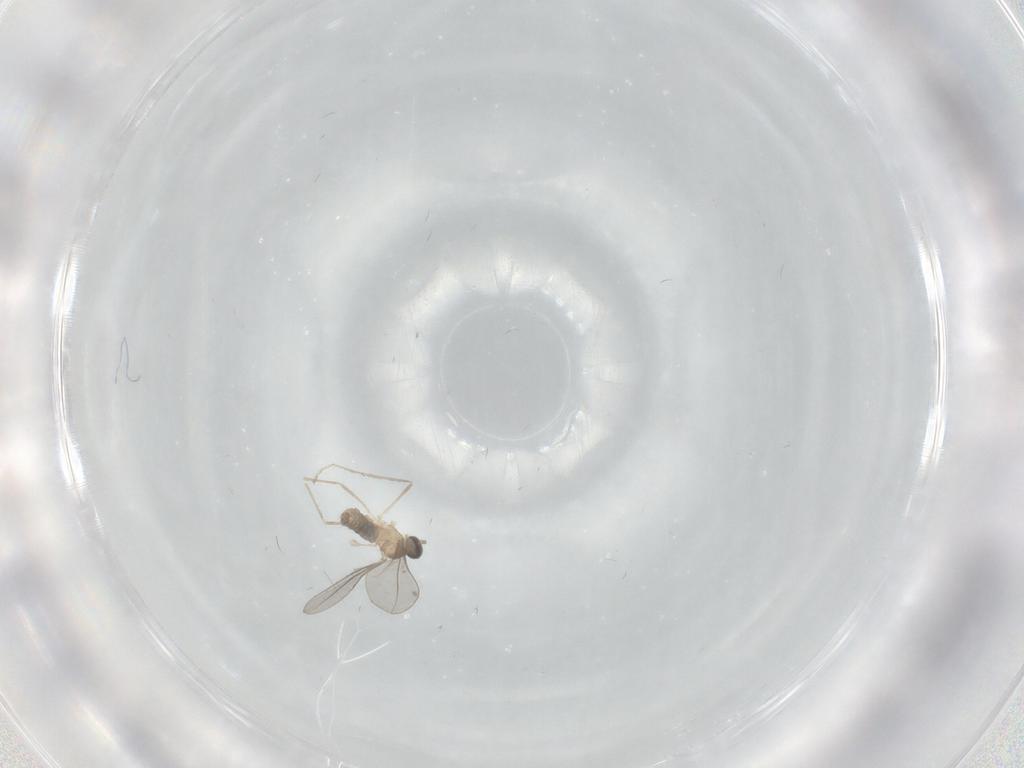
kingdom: Animalia
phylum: Arthropoda
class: Insecta
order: Diptera
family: Cecidomyiidae
